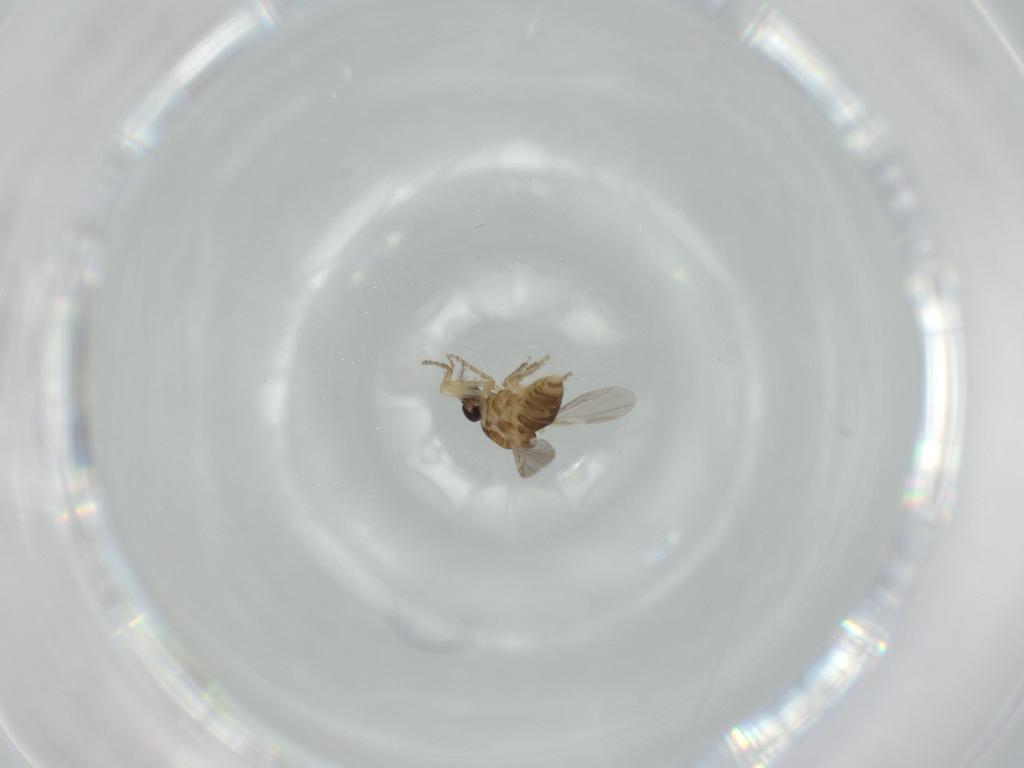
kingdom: Animalia
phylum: Arthropoda
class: Insecta
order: Diptera
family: Ceratopogonidae
